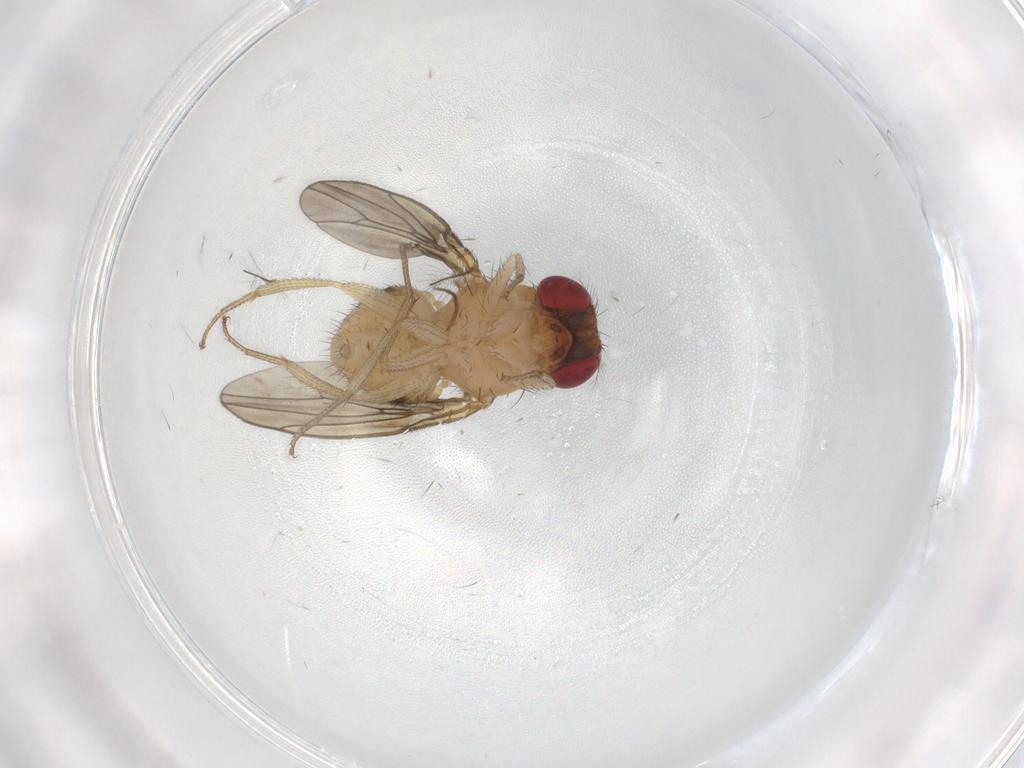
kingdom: Animalia
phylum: Arthropoda
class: Insecta
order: Diptera
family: Drosophilidae
